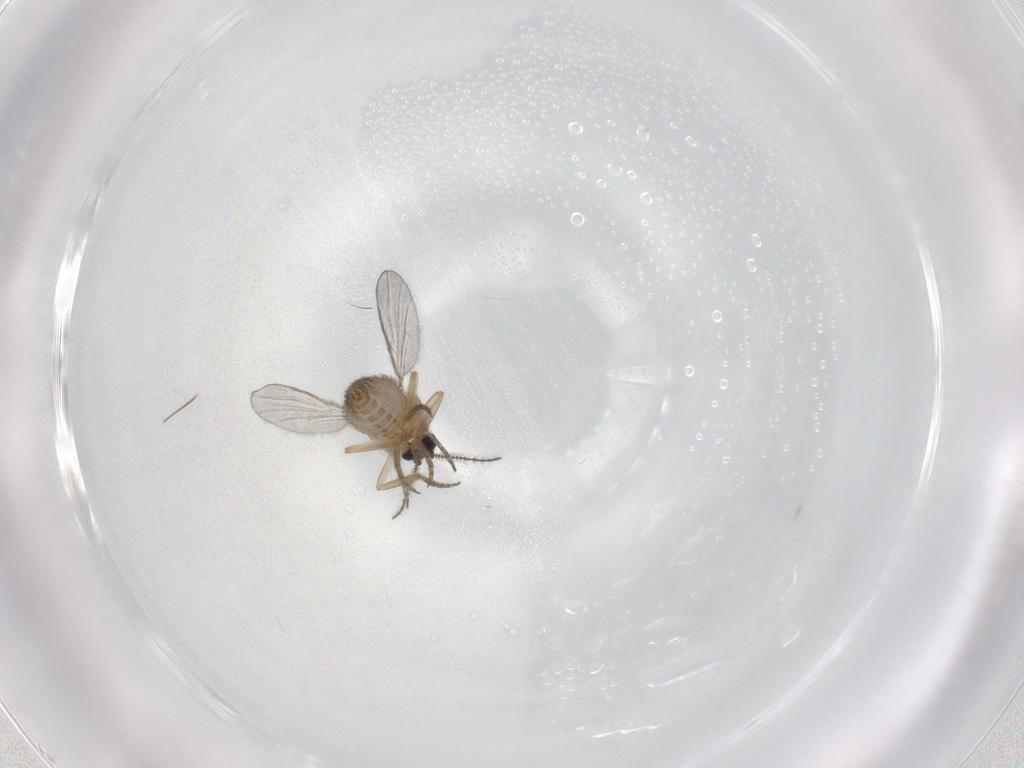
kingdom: Animalia
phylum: Arthropoda
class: Insecta
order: Diptera
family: Ceratopogonidae
